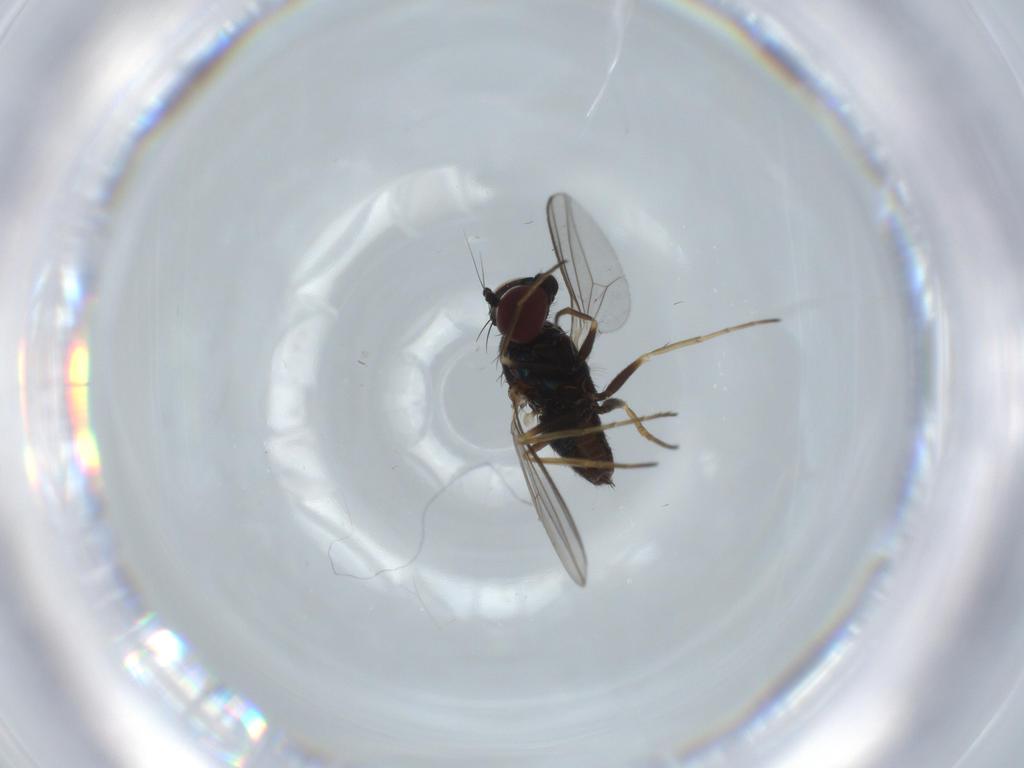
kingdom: Animalia
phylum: Arthropoda
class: Insecta
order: Diptera
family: Dolichopodidae
